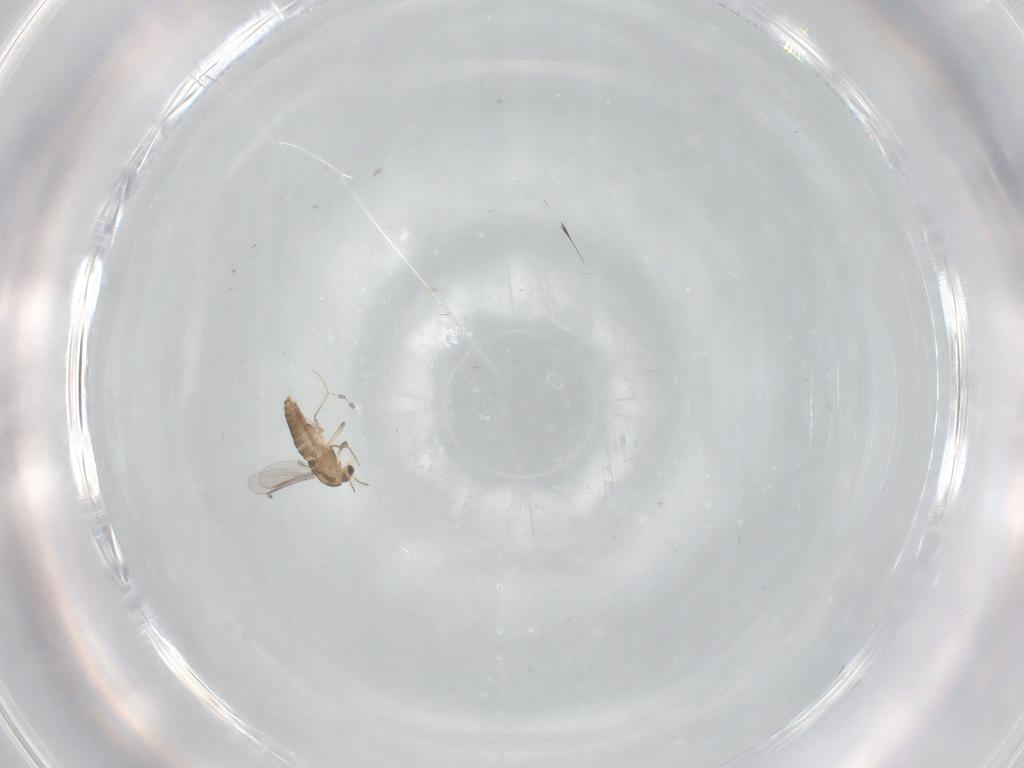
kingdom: Animalia
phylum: Arthropoda
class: Insecta
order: Diptera
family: Chironomidae
